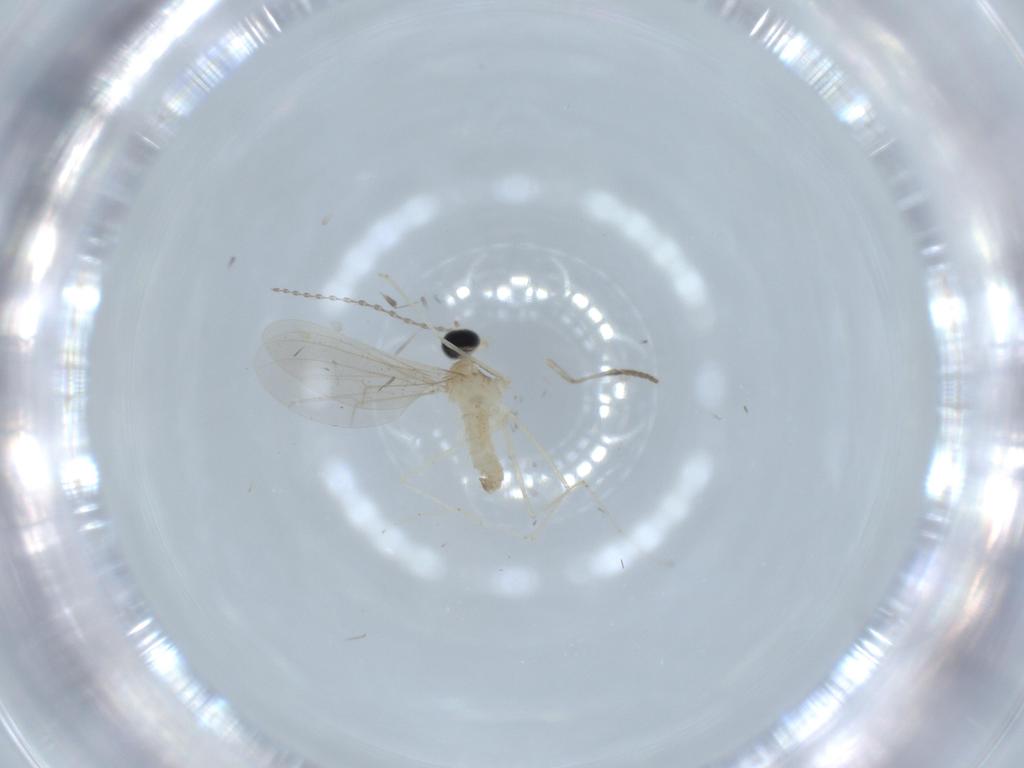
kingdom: Animalia
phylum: Arthropoda
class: Insecta
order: Diptera
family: Cecidomyiidae
